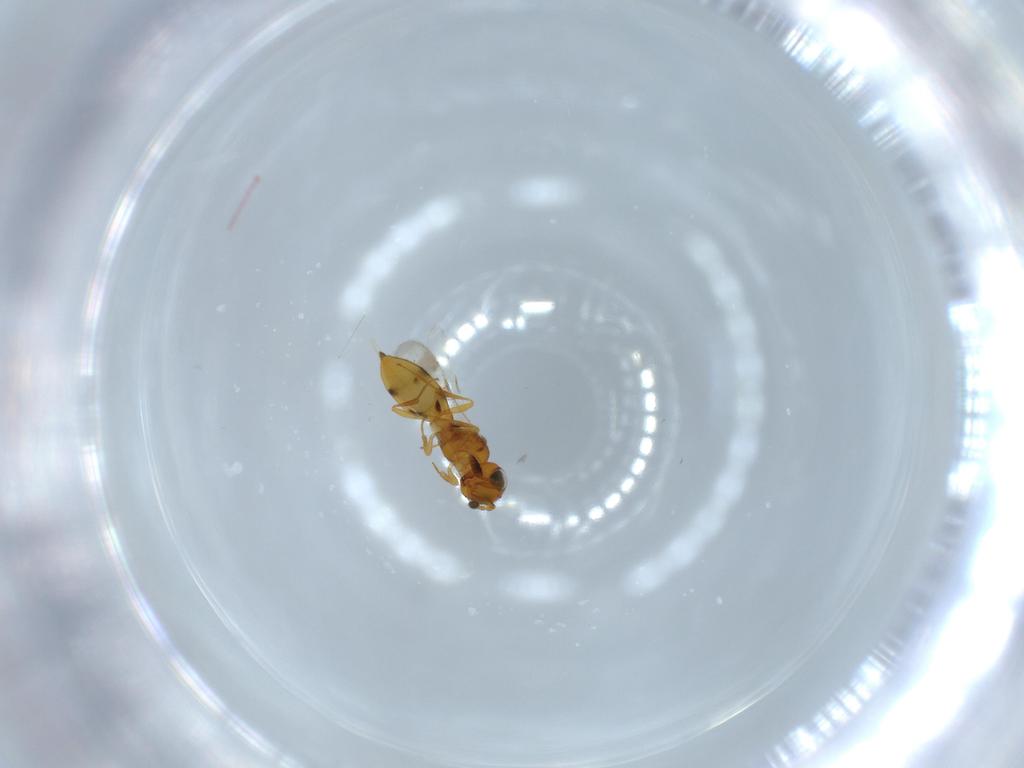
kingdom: Animalia
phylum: Arthropoda
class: Insecta
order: Hymenoptera
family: Scelionidae
